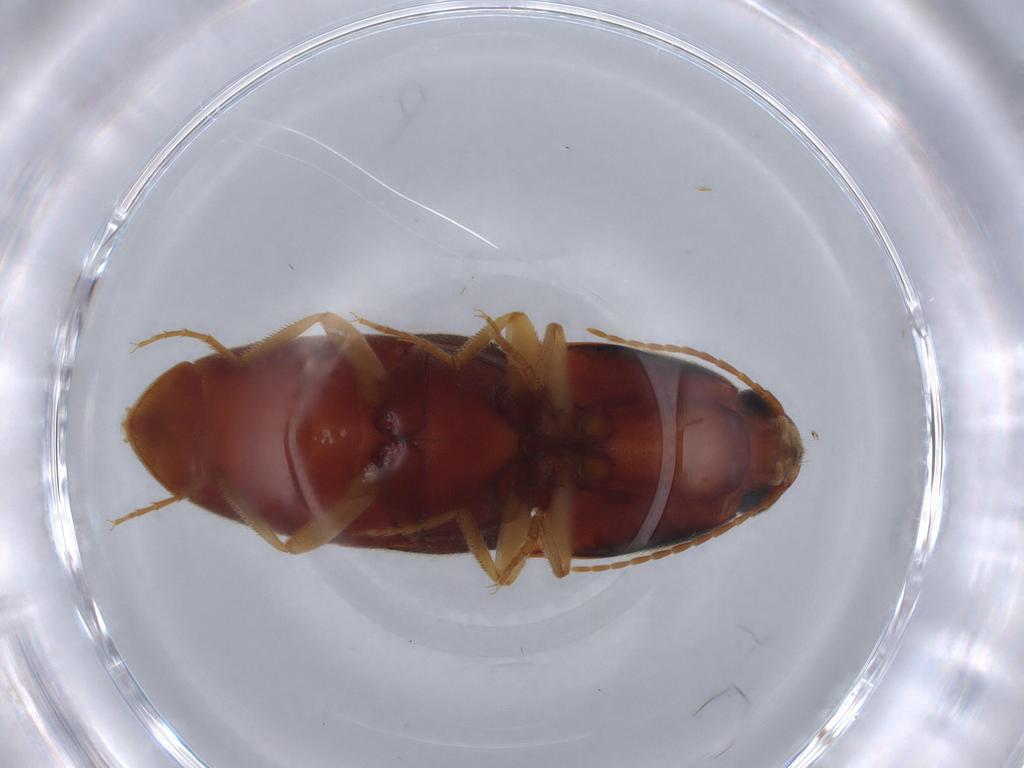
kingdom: Animalia
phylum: Arthropoda
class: Insecta
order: Coleoptera
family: Elateridae
